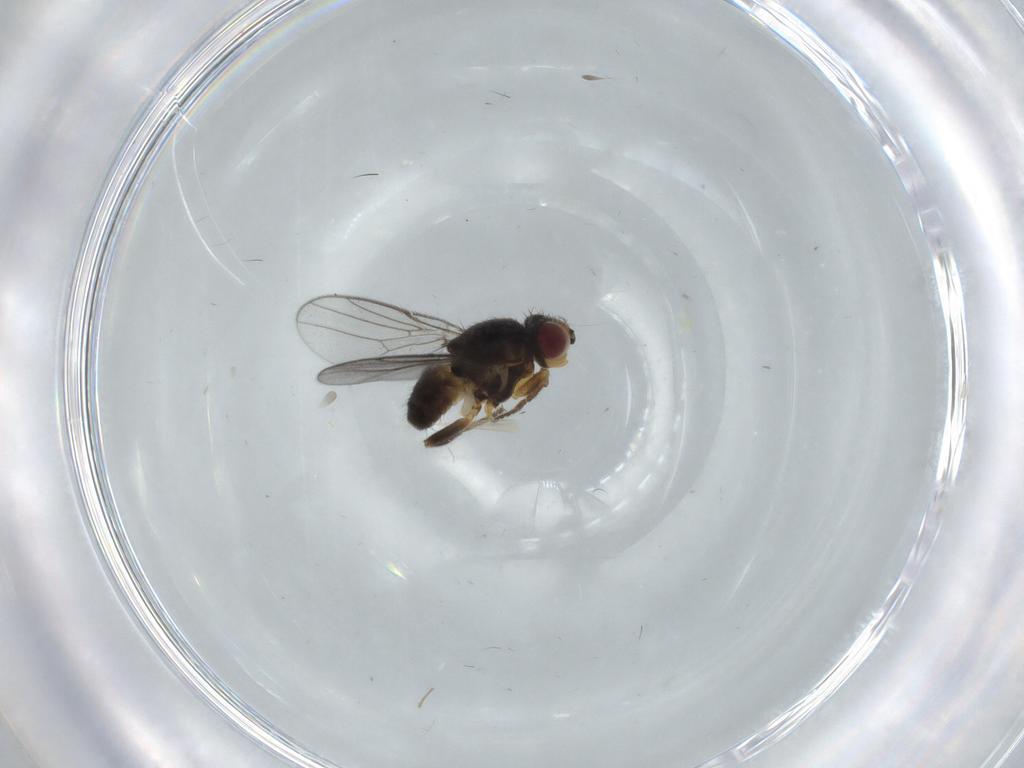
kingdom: Animalia
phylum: Arthropoda
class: Insecta
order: Diptera
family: Chloropidae
